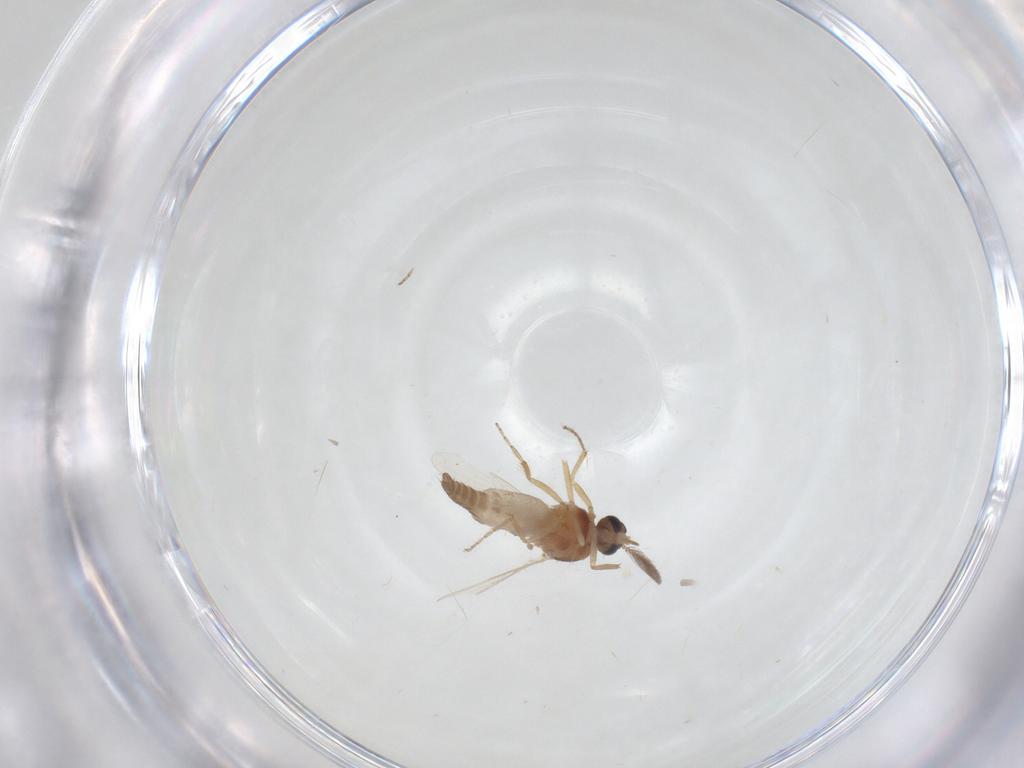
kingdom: Animalia
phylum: Arthropoda
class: Insecta
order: Diptera
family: Ceratopogonidae
